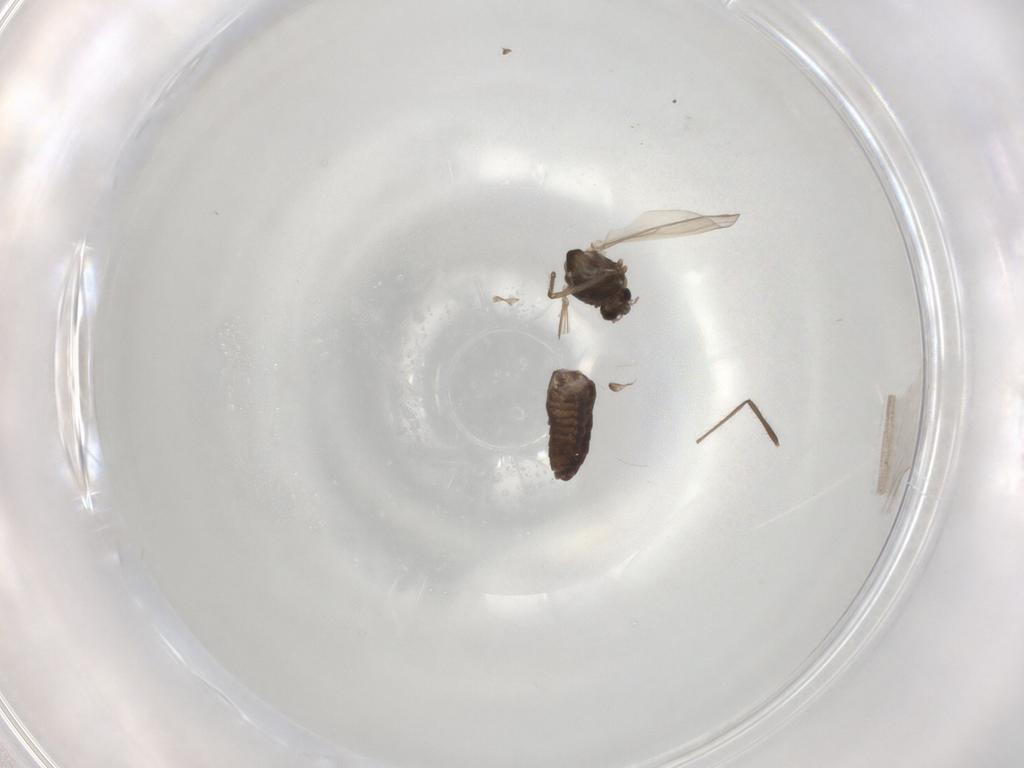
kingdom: Animalia
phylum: Arthropoda
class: Insecta
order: Diptera
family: Chironomidae
